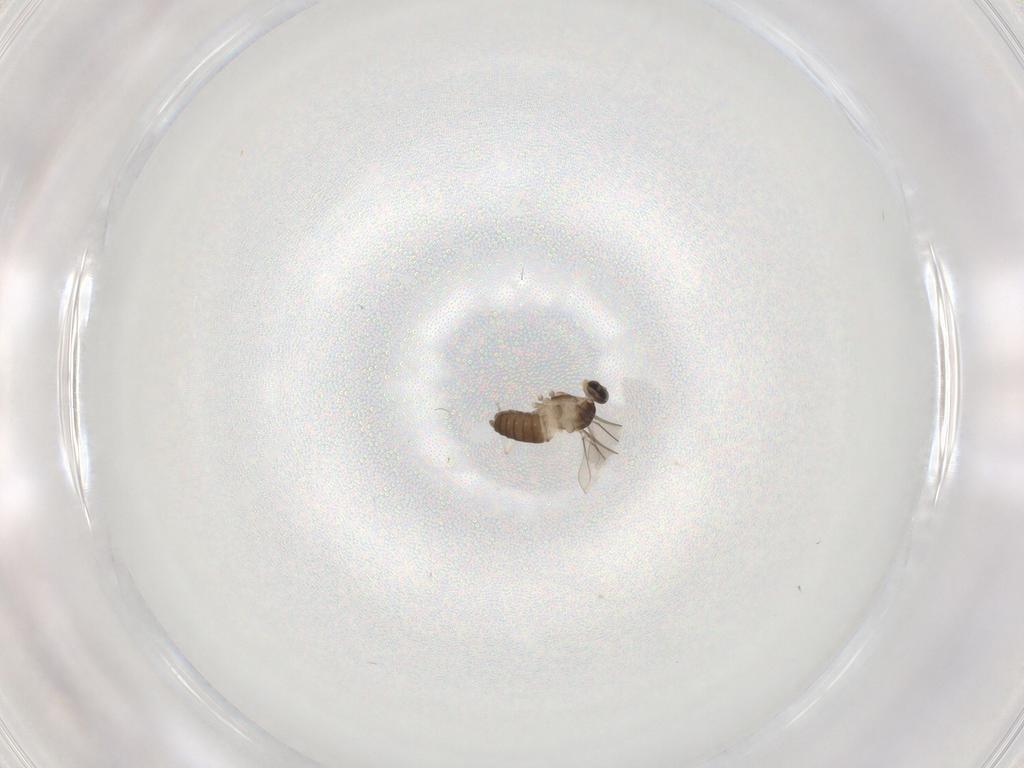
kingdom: Animalia
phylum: Arthropoda
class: Insecta
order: Diptera
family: Cecidomyiidae
